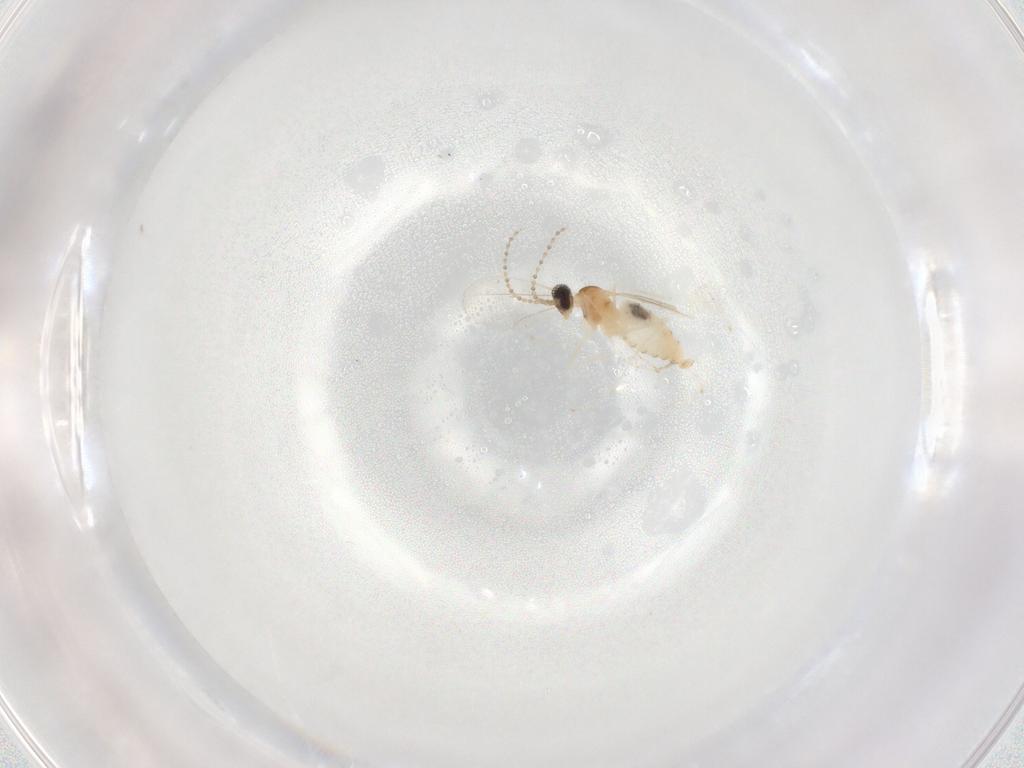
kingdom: Animalia
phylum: Arthropoda
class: Insecta
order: Diptera
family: Cecidomyiidae
